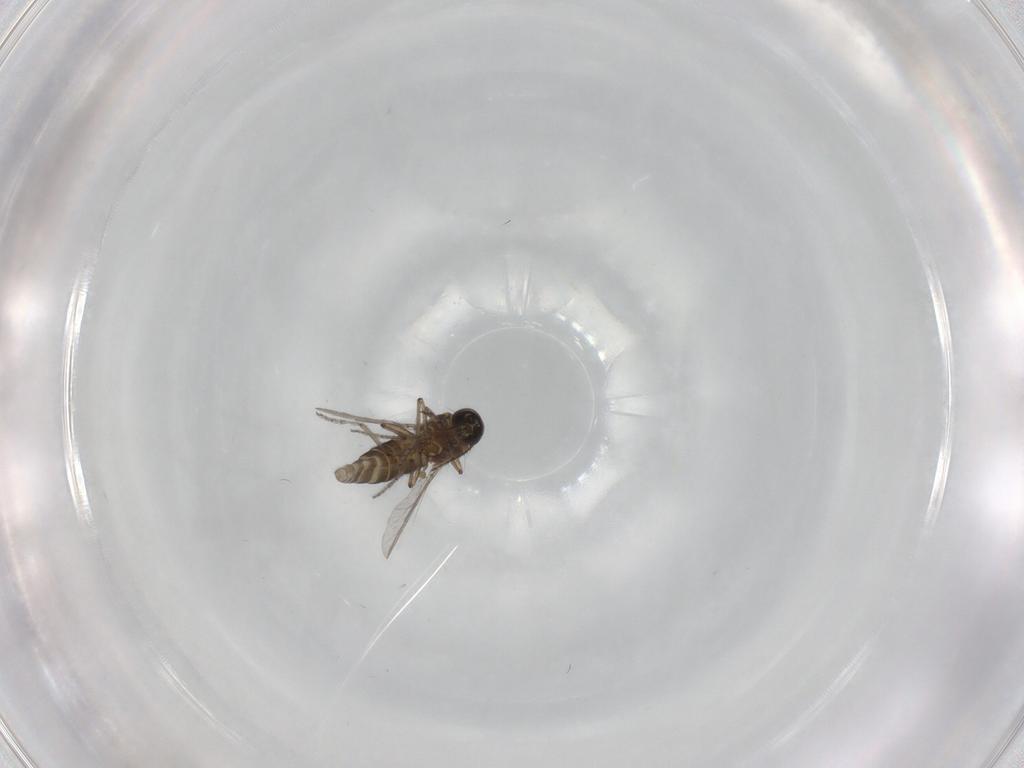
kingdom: Animalia
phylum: Arthropoda
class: Insecta
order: Diptera
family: Ceratopogonidae
